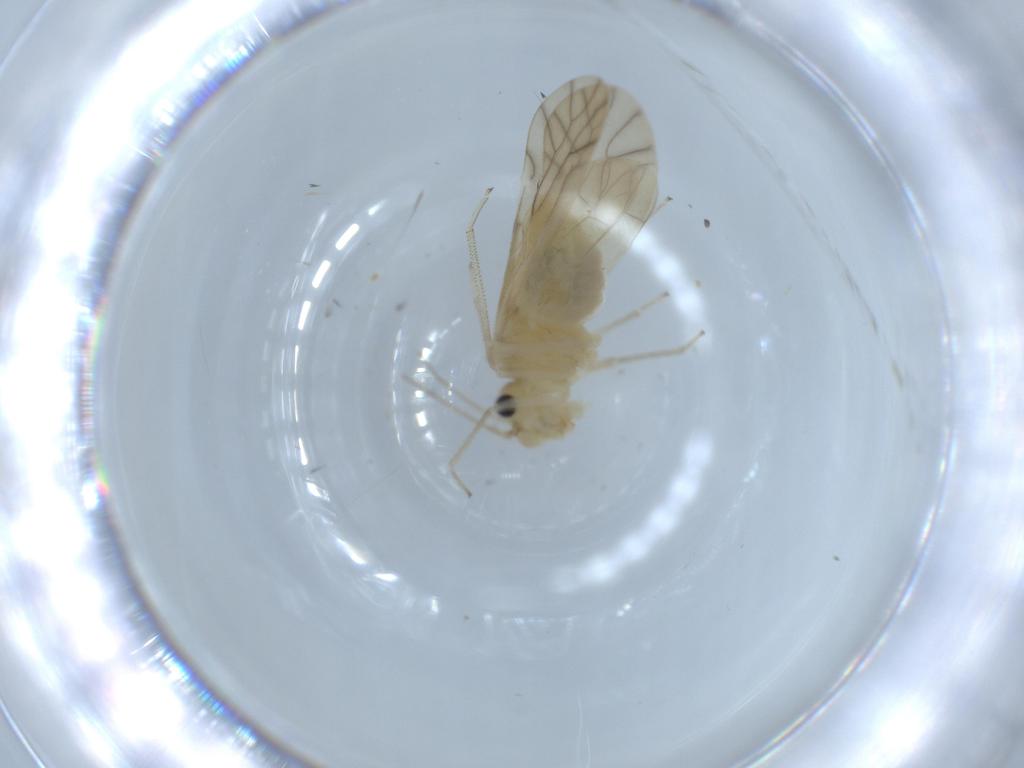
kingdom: Animalia
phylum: Arthropoda
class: Insecta
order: Psocodea
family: Caeciliusidae
